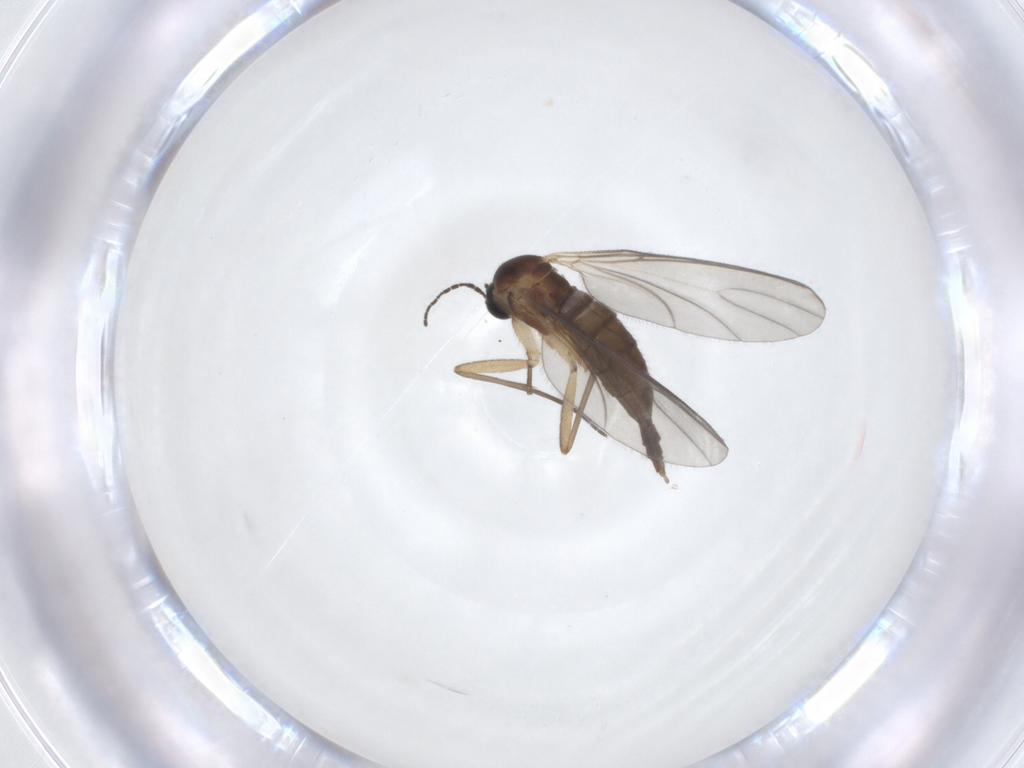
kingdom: Animalia
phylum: Arthropoda
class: Insecta
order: Diptera
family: Sciaridae
